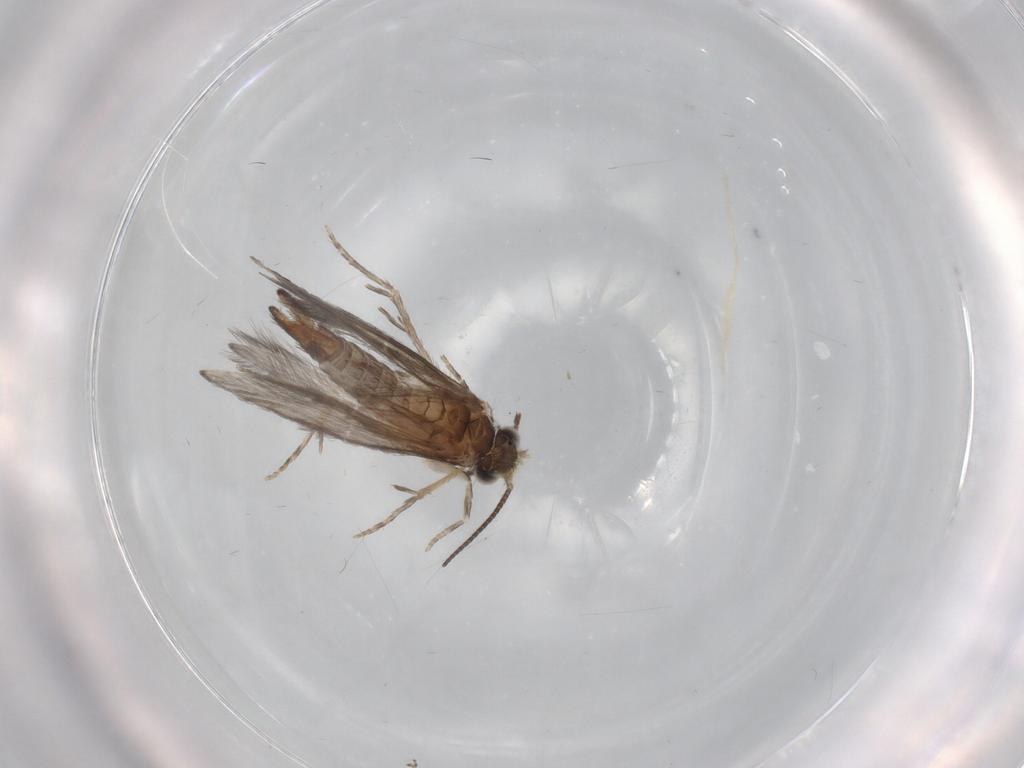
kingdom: Animalia
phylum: Arthropoda
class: Insecta
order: Trichoptera
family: Hydroptilidae
